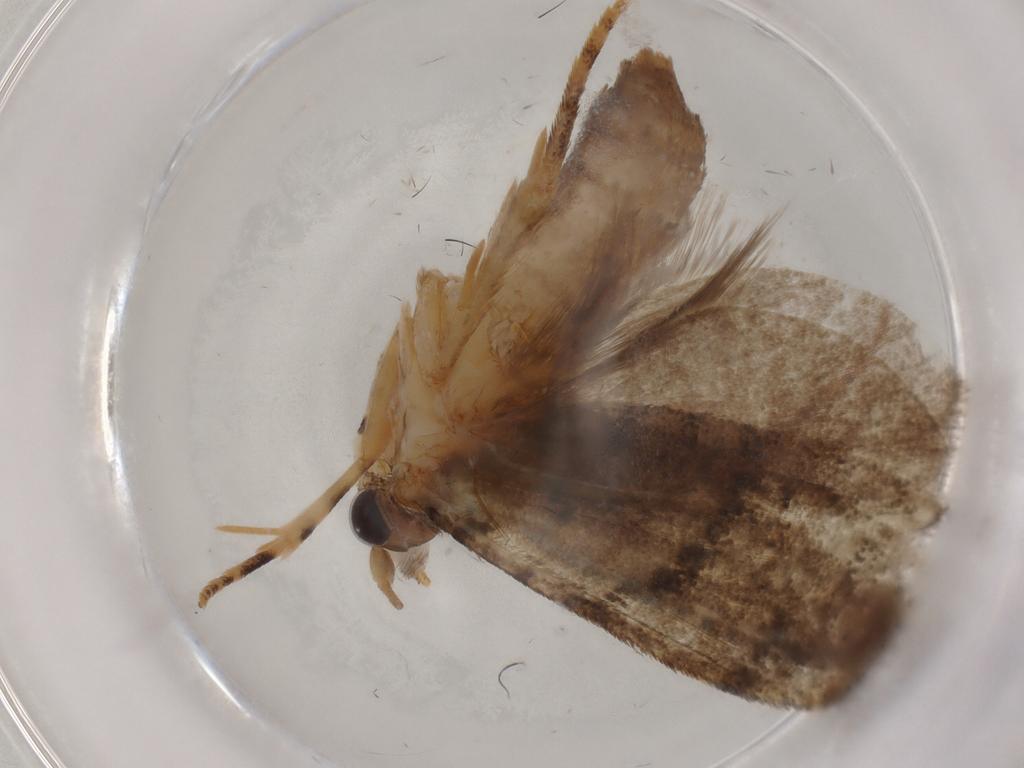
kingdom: Animalia
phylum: Arthropoda
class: Insecta
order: Lepidoptera
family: Gelechiidae
